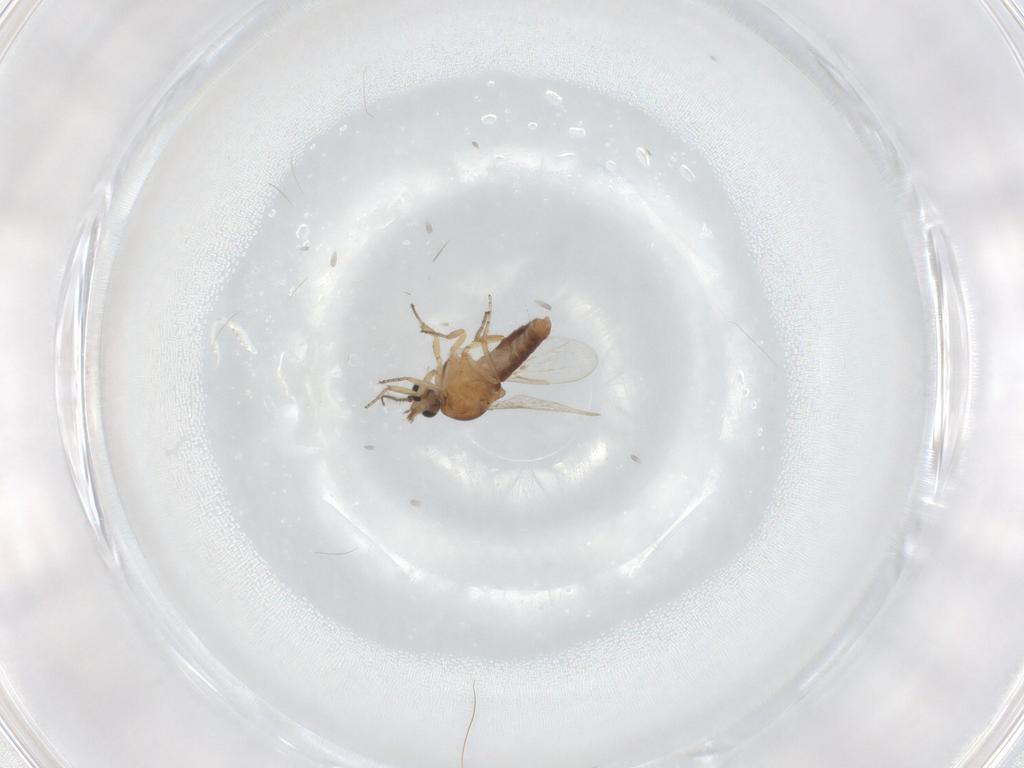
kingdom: Animalia
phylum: Arthropoda
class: Insecta
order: Diptera
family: Ceratopogonidae
